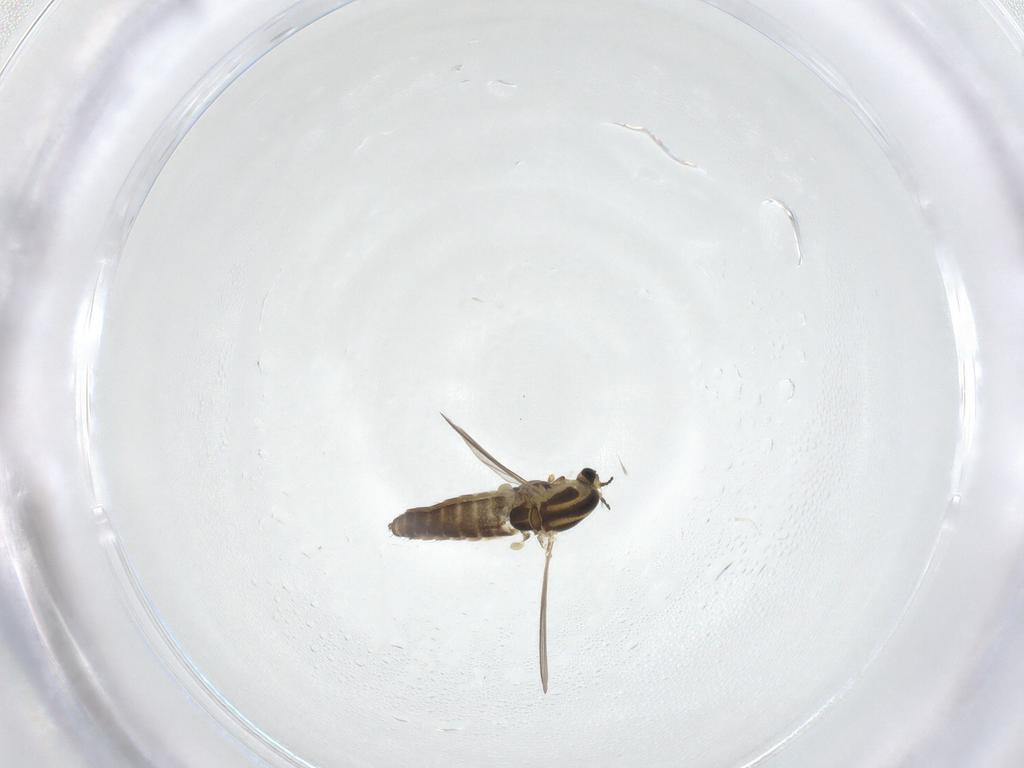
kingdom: Animalia
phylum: Arthropoda
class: Insecta
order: Diptera
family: Chironomidae
